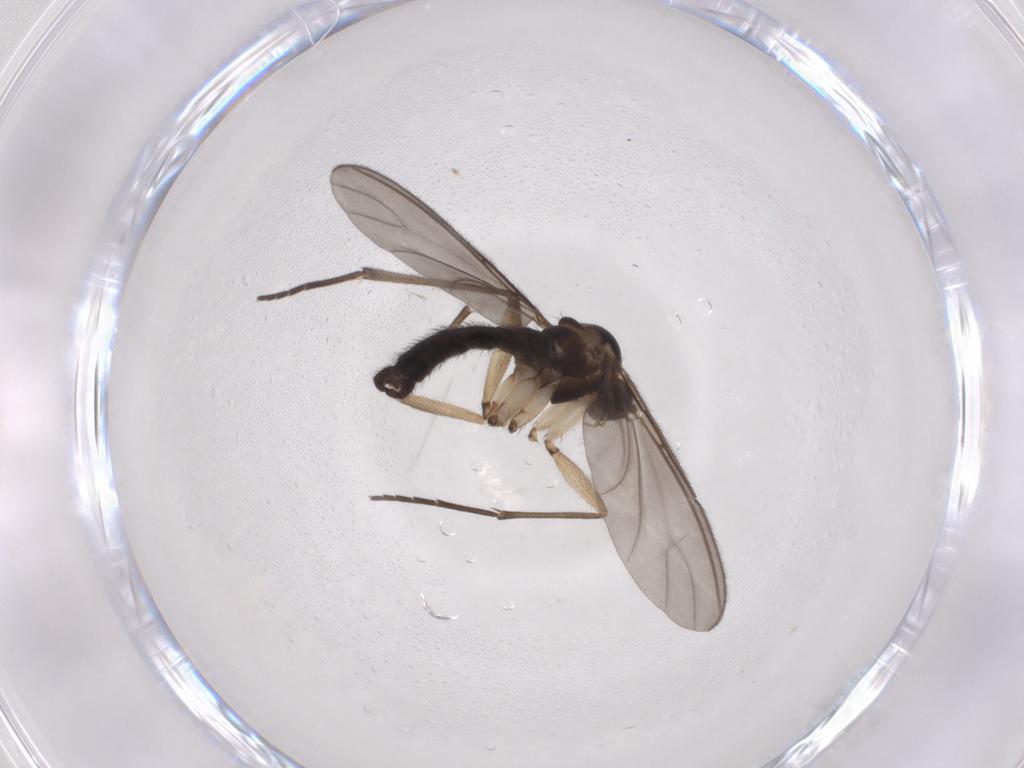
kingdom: Animalia
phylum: Arthropoda
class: Insecta
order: Diptera
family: Sciaridae
